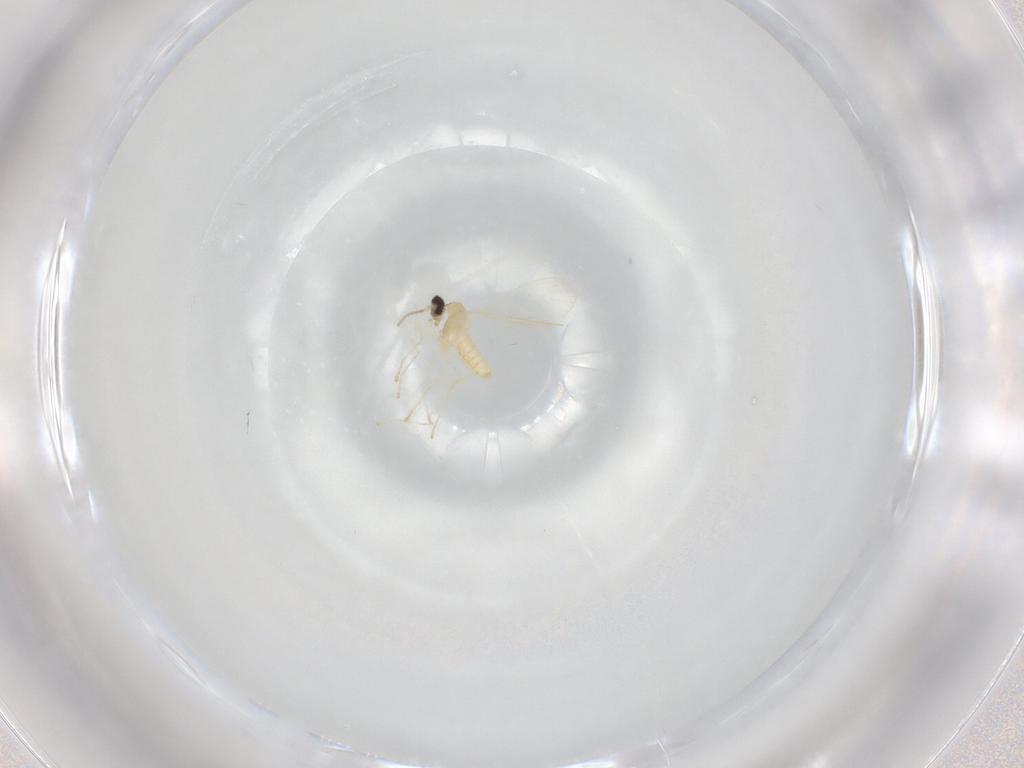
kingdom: Animalia
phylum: Arthropoda
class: Insecta
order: Diptera
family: Cecidomyiidae
